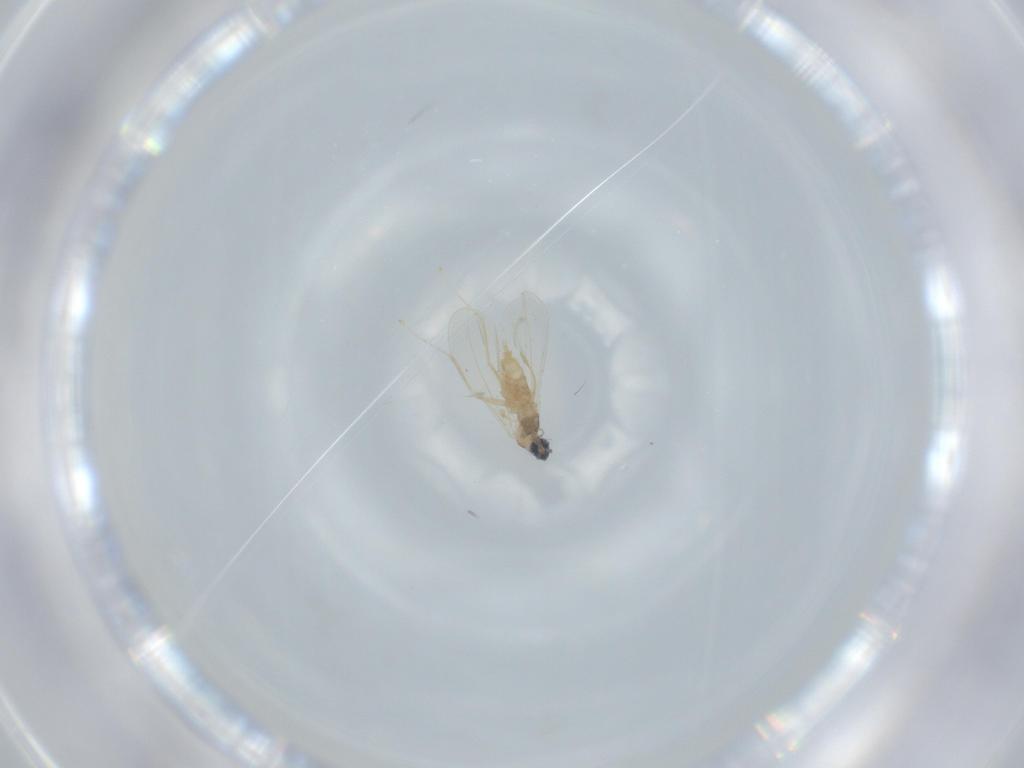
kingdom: Animalia
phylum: Arthropoda
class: Insecta
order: Diptera
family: Cecidomyiidae
